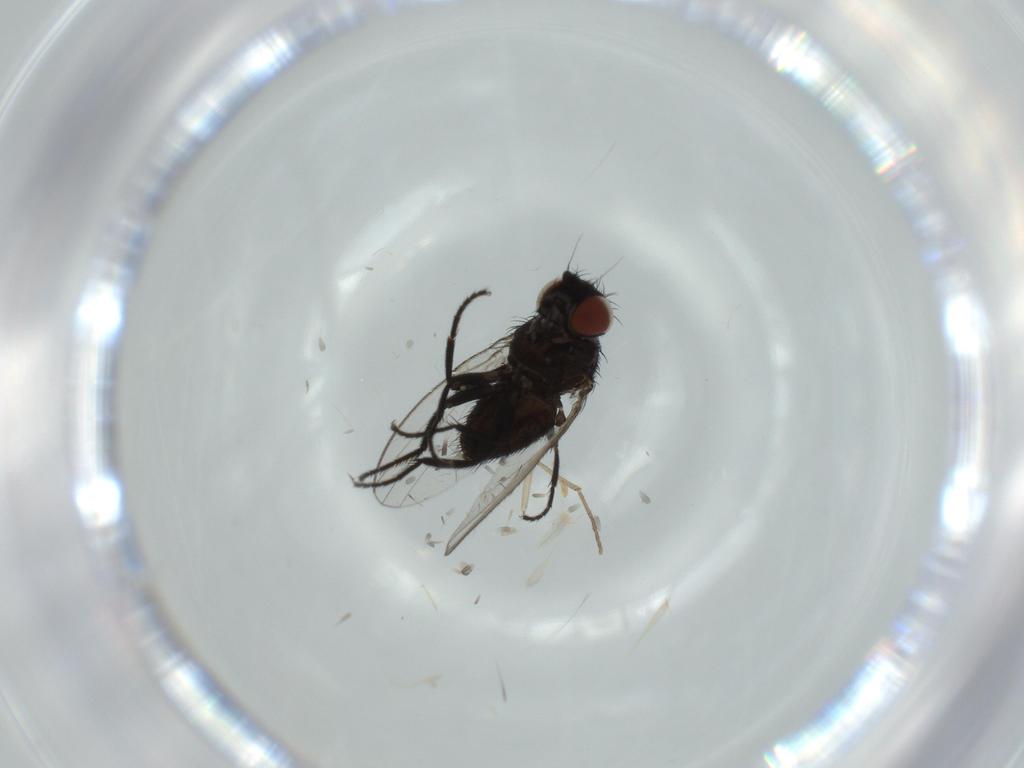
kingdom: Animalia
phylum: Arthropoda
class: Insecta
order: Diptera
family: Milichiidae
